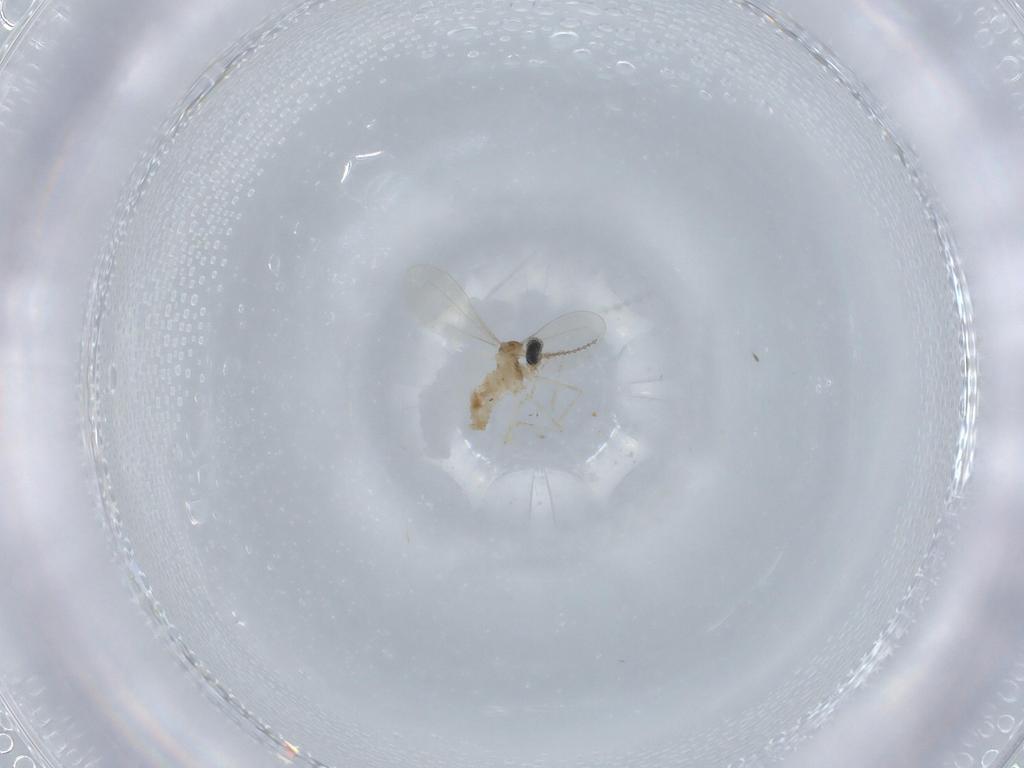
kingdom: Animalia
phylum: Arthropoda
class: Insecta
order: Diptera
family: Cecidomyiidae
